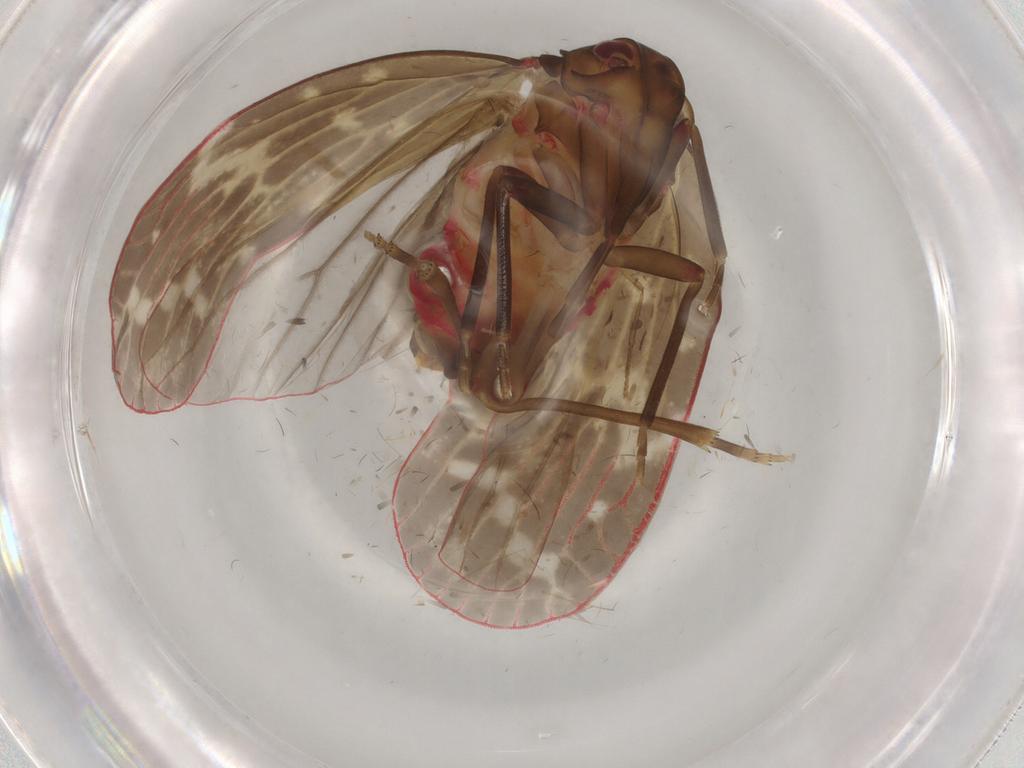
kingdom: Animalia
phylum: Arthropoda
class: Insecta
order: Hemiptera
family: Achilidae
